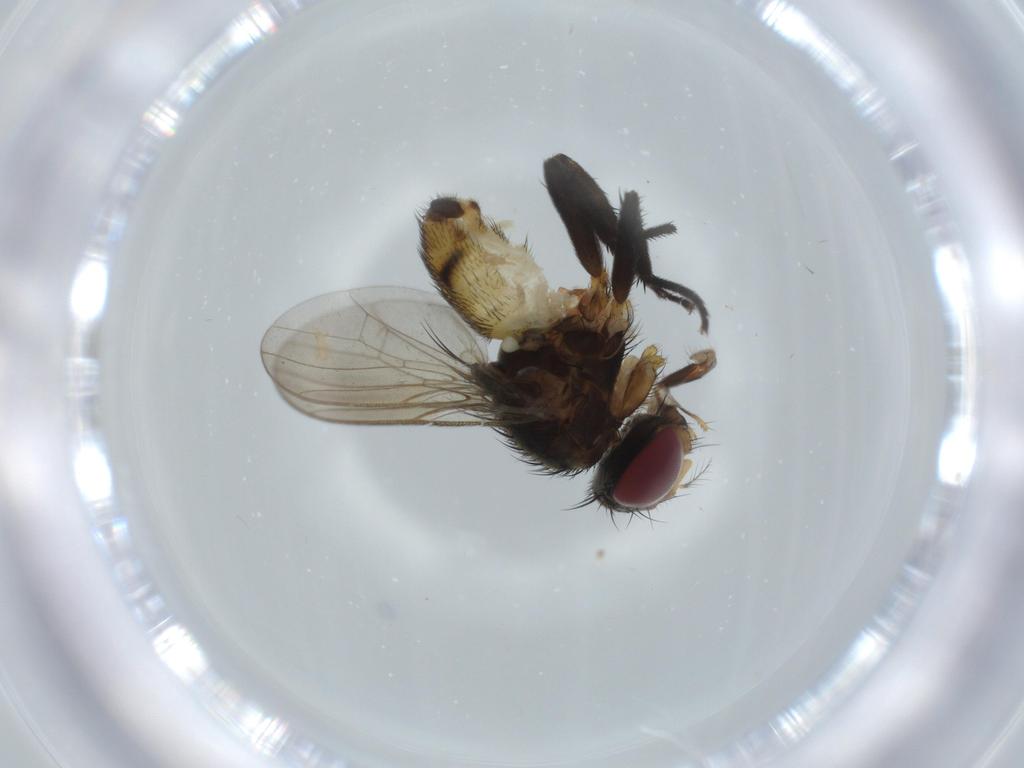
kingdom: Animalia
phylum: Arthropoda
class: Insecta
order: Diptera
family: Anthomyiidae
